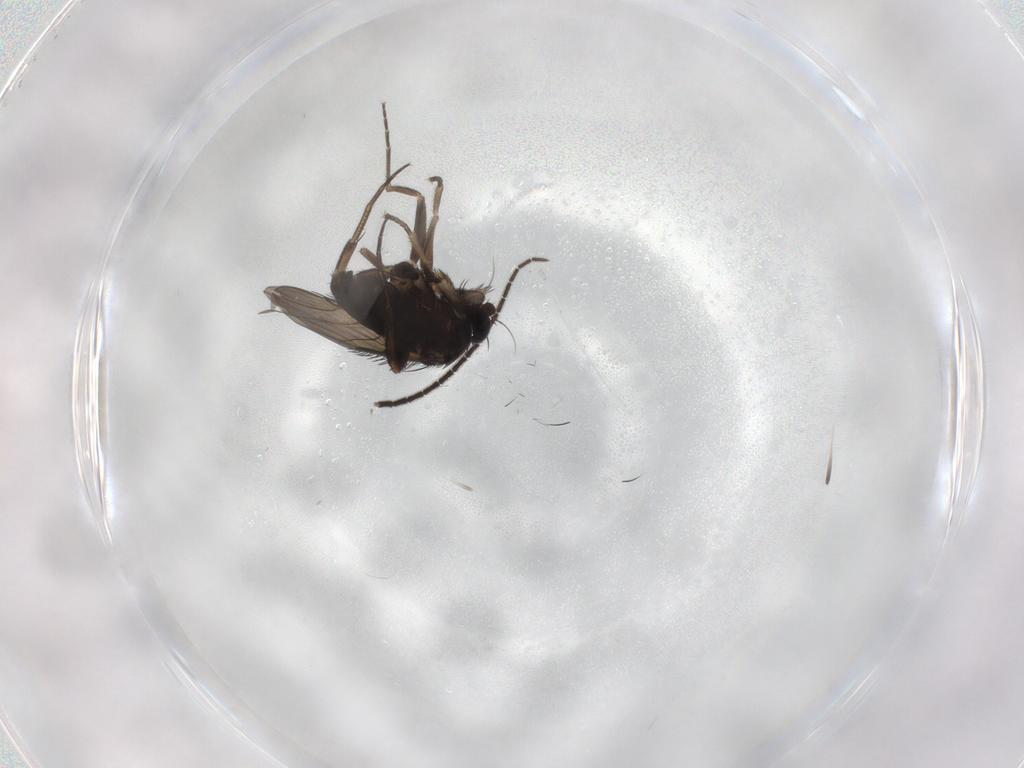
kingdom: Animalia
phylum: Arthropoda
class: Insecta
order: Diptera
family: Phoridae
